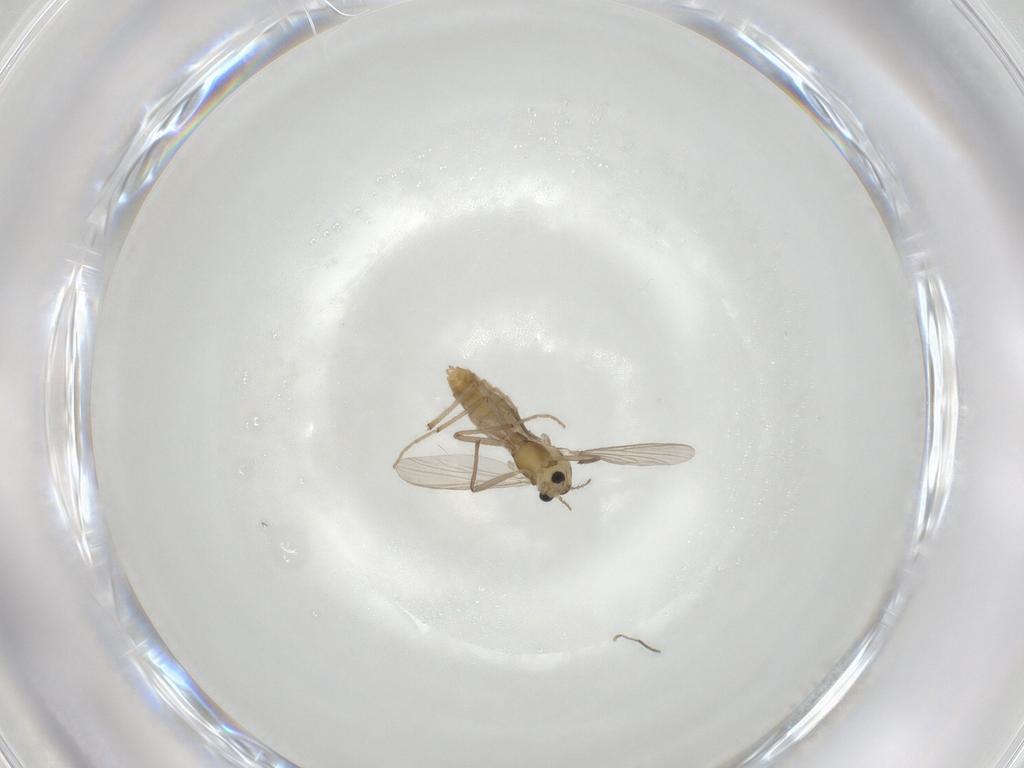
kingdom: Animalia
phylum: Arthropoda
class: Insecta
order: Diptera
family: Chironomidae
